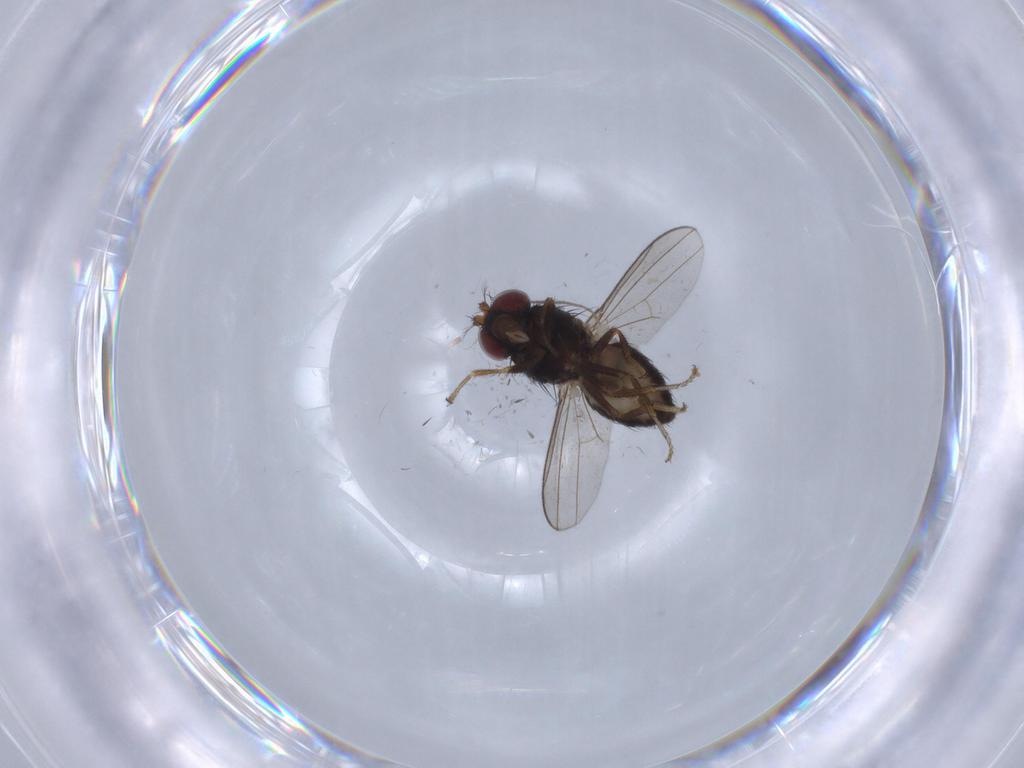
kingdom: Animalia
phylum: Arthropoda
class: Insecta
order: Diptera
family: Chironomidae
